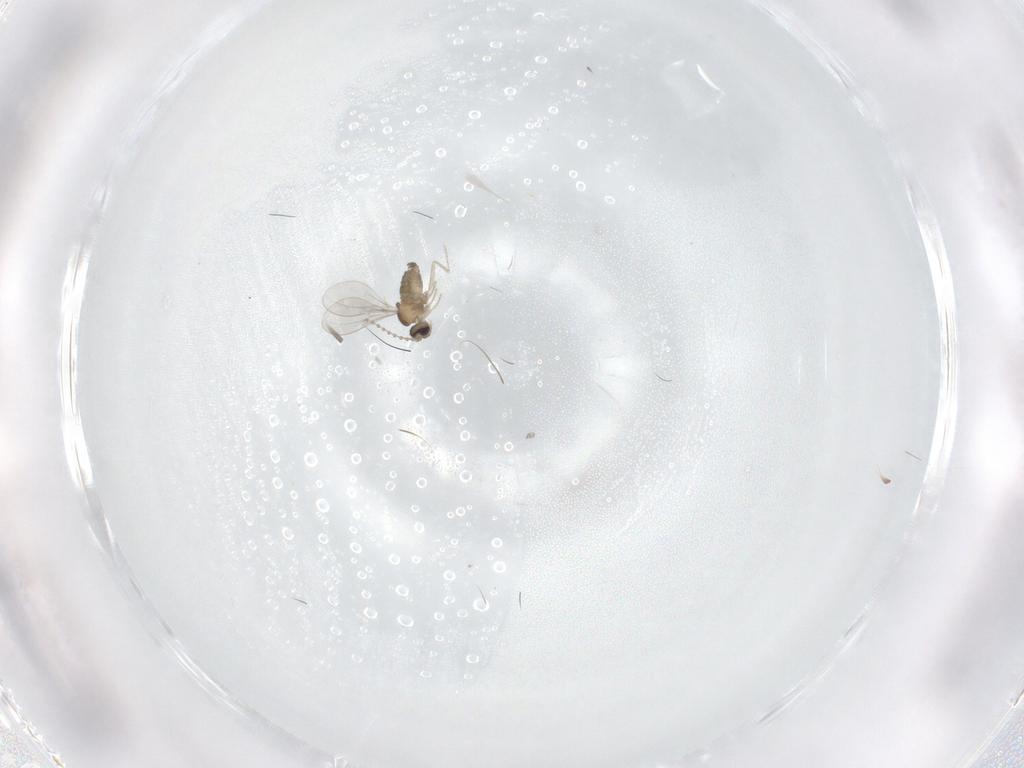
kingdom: Animalia
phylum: Arthropoda
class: Insecta
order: Diptera
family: Cecidomyiidae
